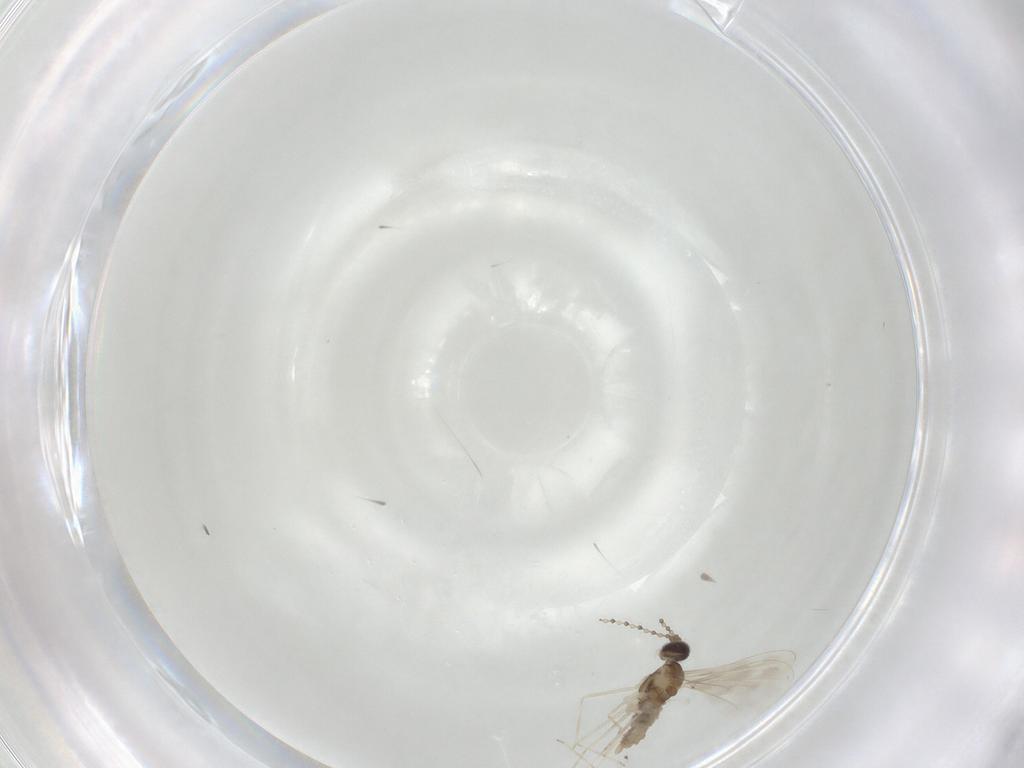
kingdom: Animalia
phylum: Arthropoda
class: Insecta
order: Diptera
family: Cecidomyiidae
